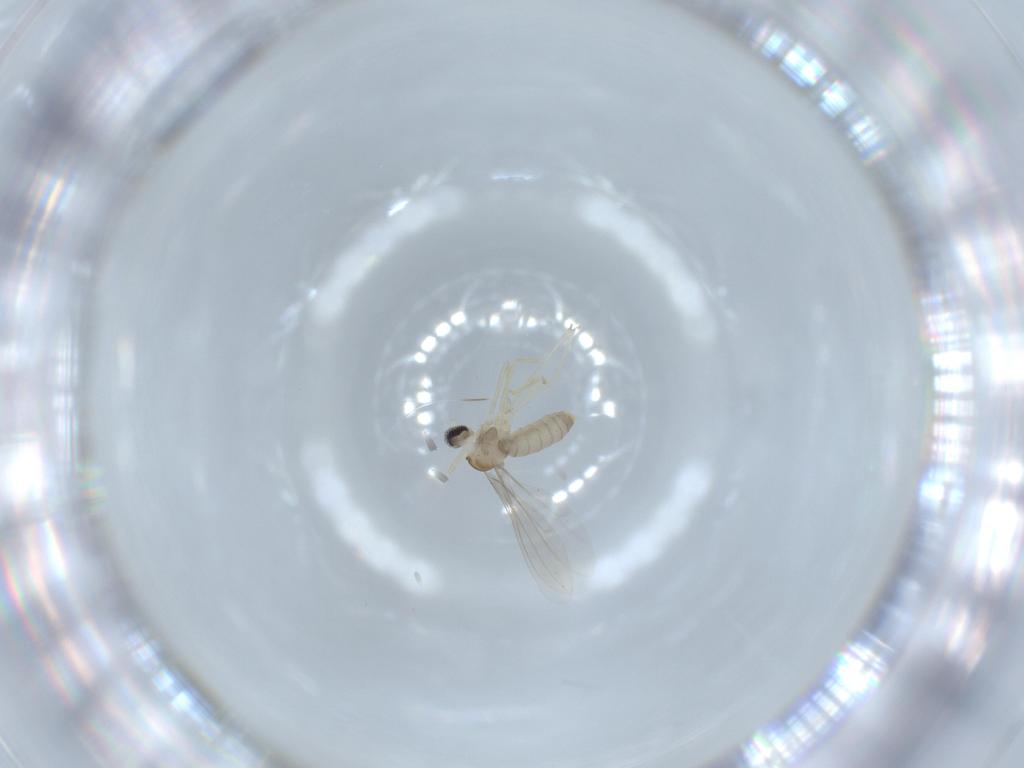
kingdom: Animalia
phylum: Arthropoda
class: Insecta
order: Diptera
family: Cecidomyiidae
